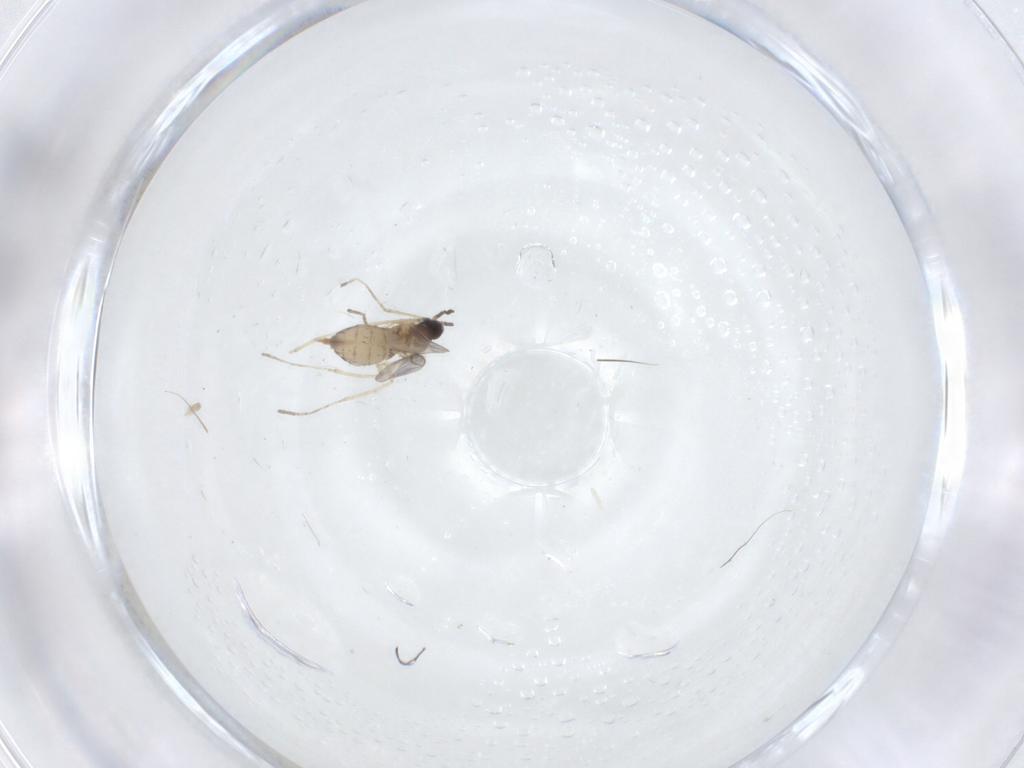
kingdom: Animalia
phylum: Arthropoda
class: Insecta
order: Diptera
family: Cecidomyiidae
